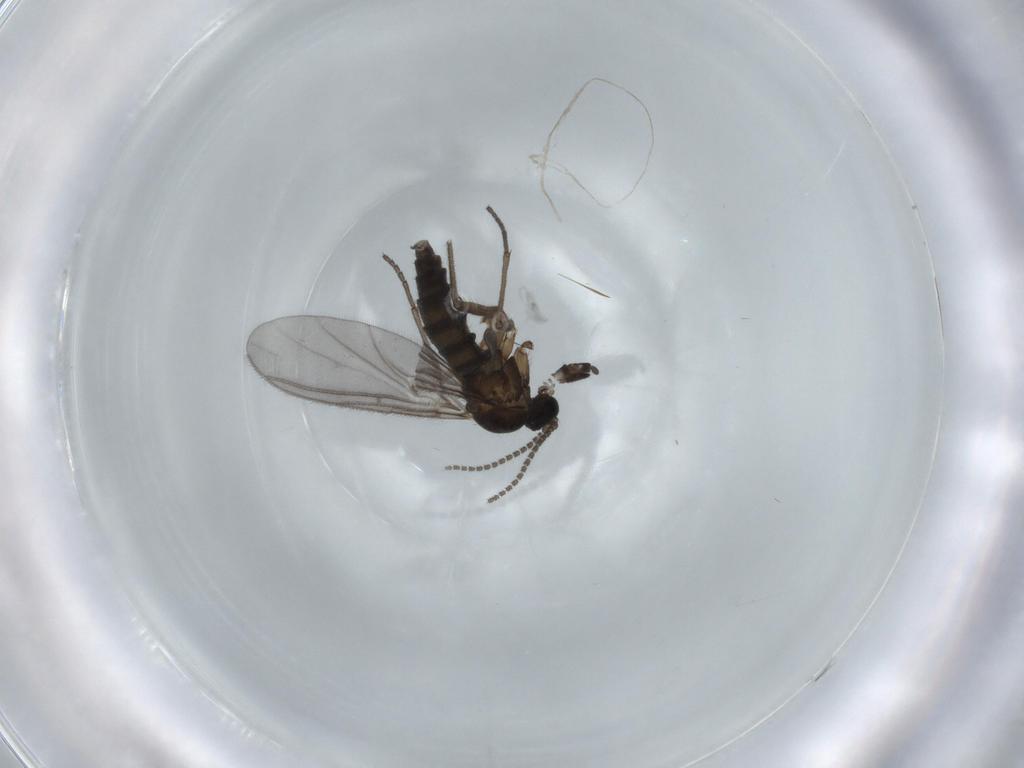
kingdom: Animalia
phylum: Arthropoda
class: Insecta
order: Diptera
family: Sciaridae
